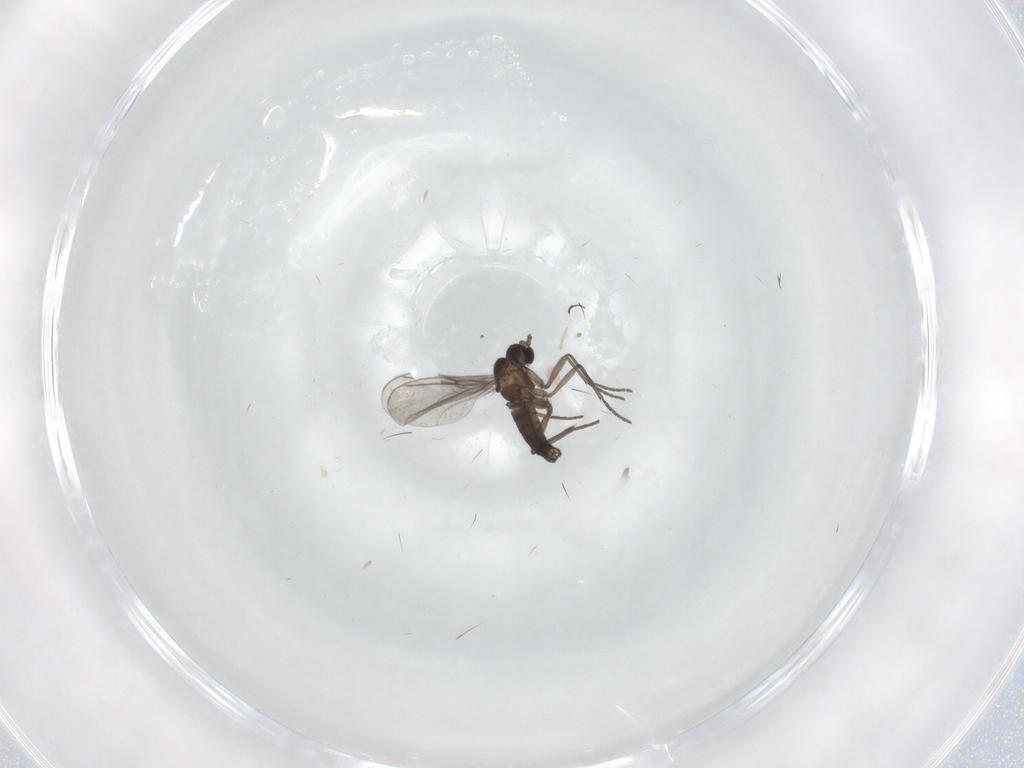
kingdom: Animalia
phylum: Arthropoda
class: Insecta
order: Diptera
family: Cecidomyiidae
